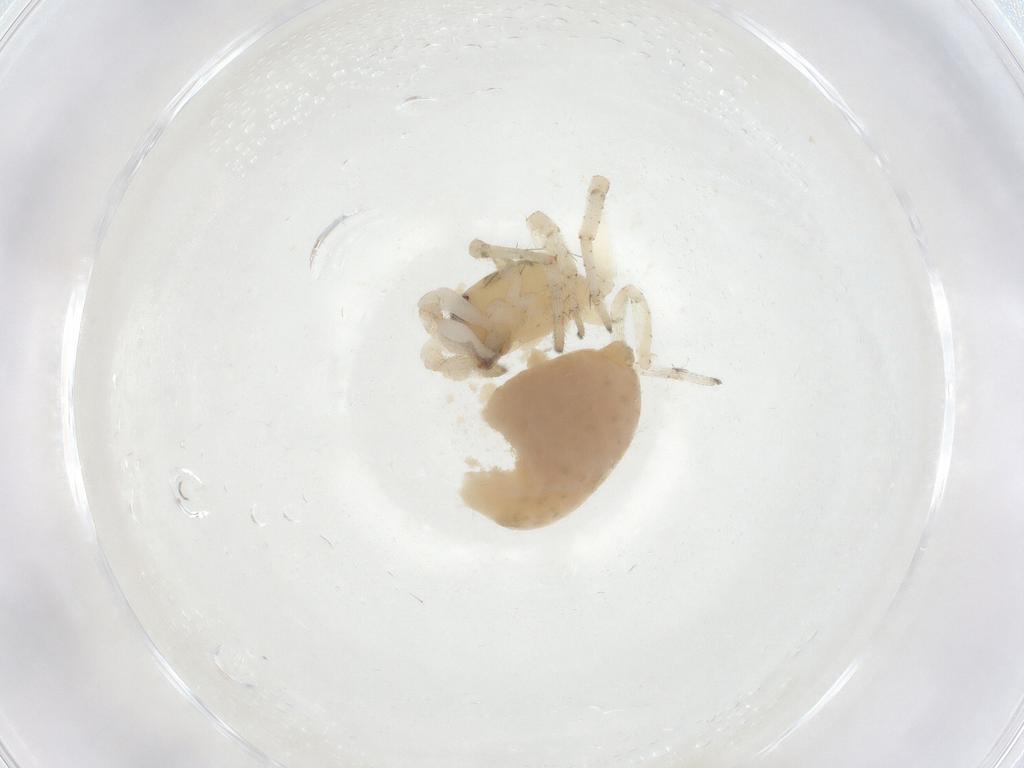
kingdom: Animalia
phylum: Arthropoda
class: Arachnida
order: Araneae
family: Anyphaenidae
